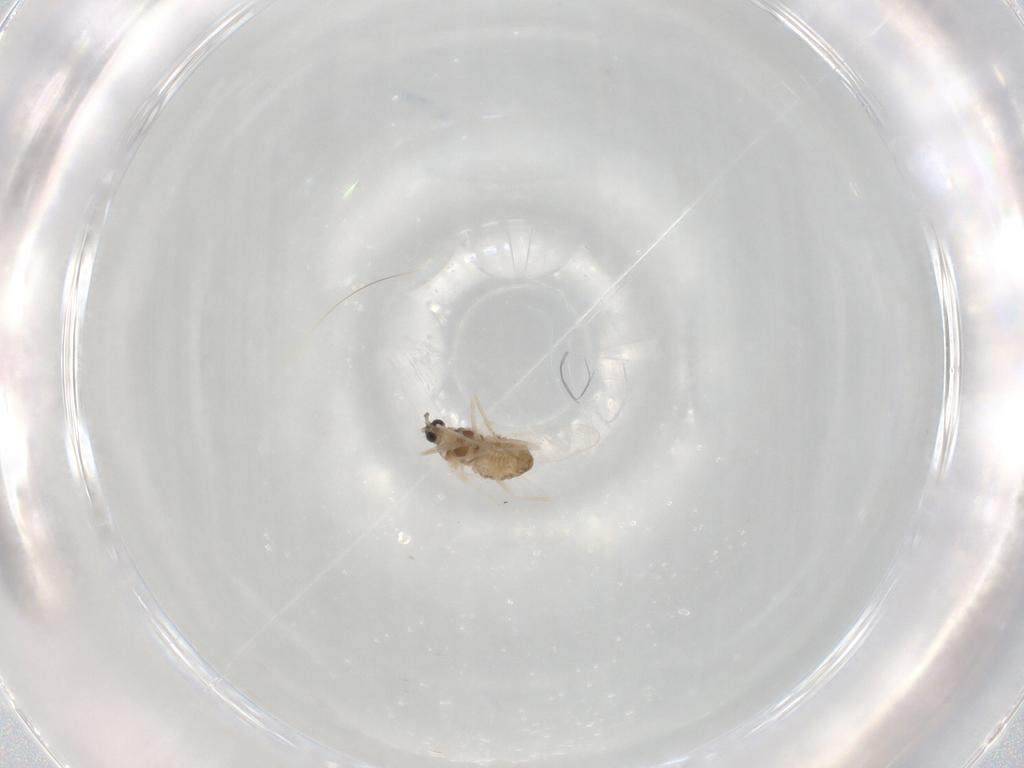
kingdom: Animalia
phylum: Arthropoda
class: Insecta
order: Diptera
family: Cecidomyiidae
